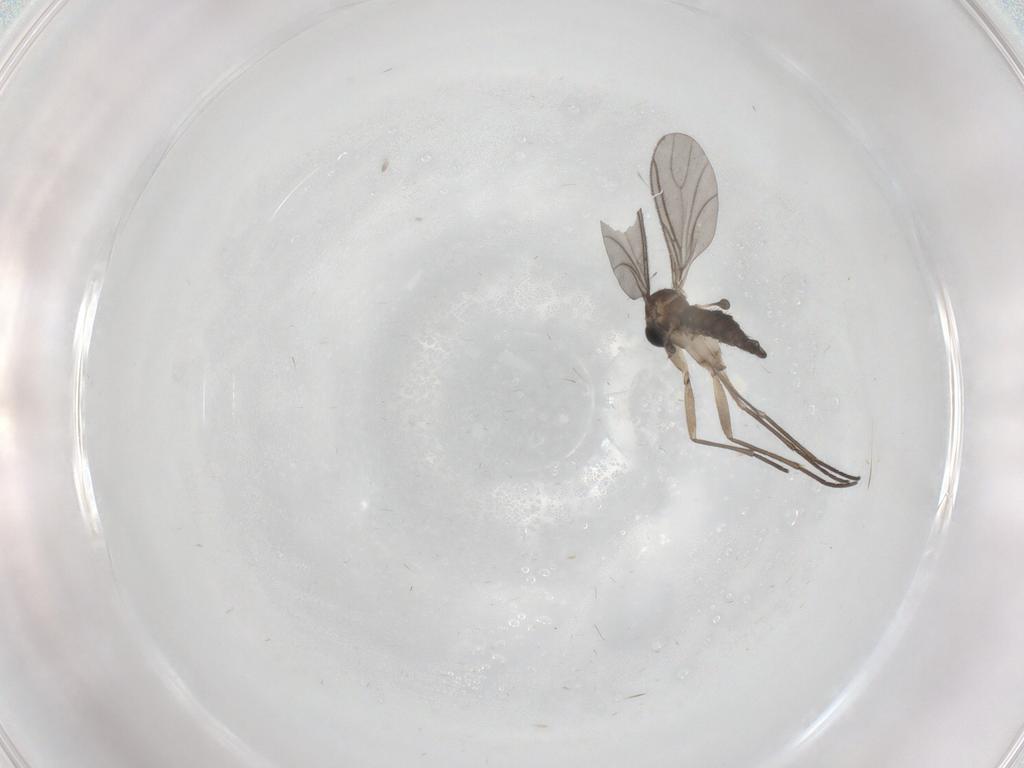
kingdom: Animalia
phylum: Arthropoda
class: Insecta
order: Diptera
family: Sciaridae
